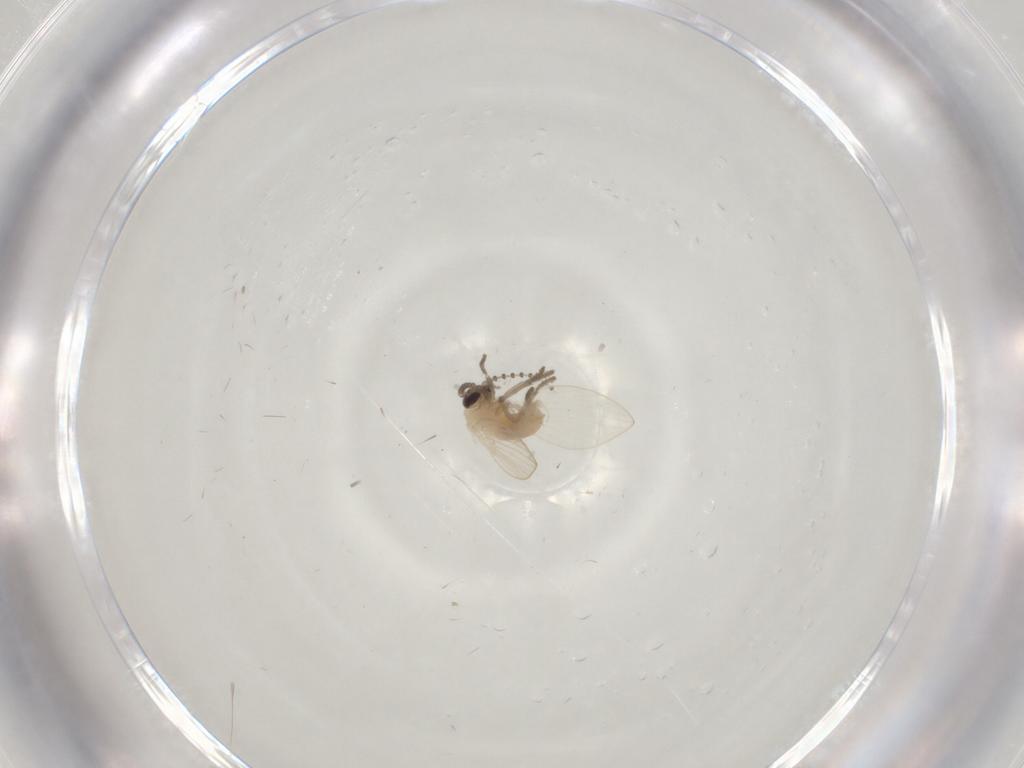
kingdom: Animalia
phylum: Arthropoda
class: Insecta
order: Diptera
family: Psychodidae
